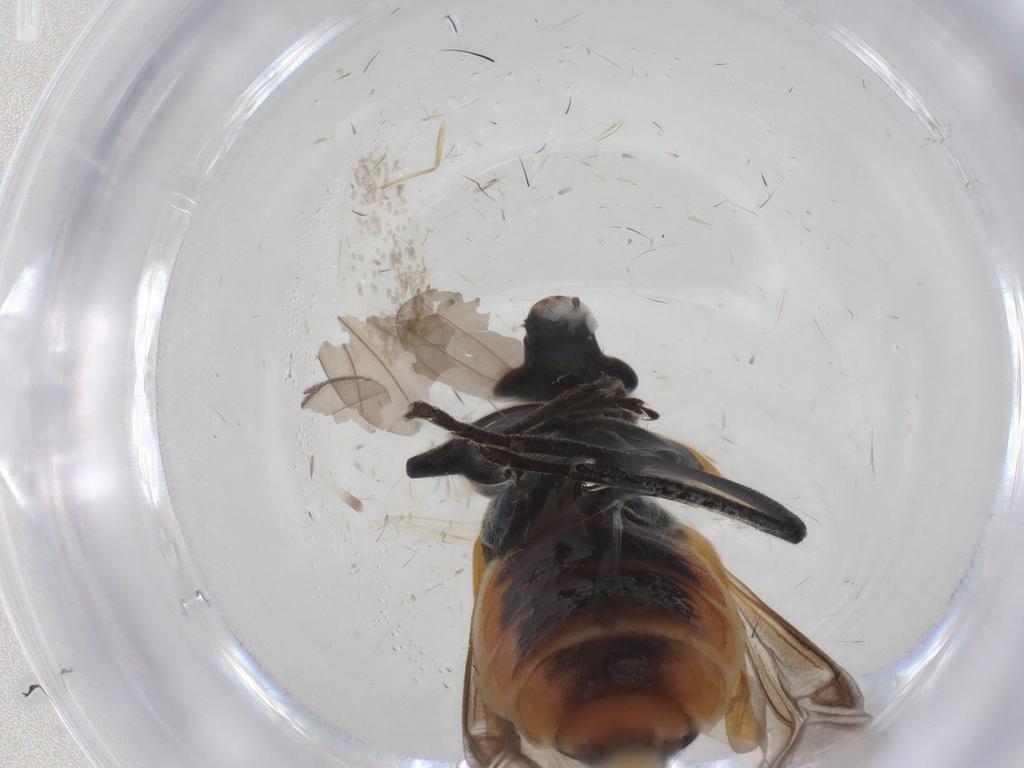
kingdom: Animalia
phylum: Arthropoda
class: Insecta
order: Coleoptera
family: Oedemeridae
